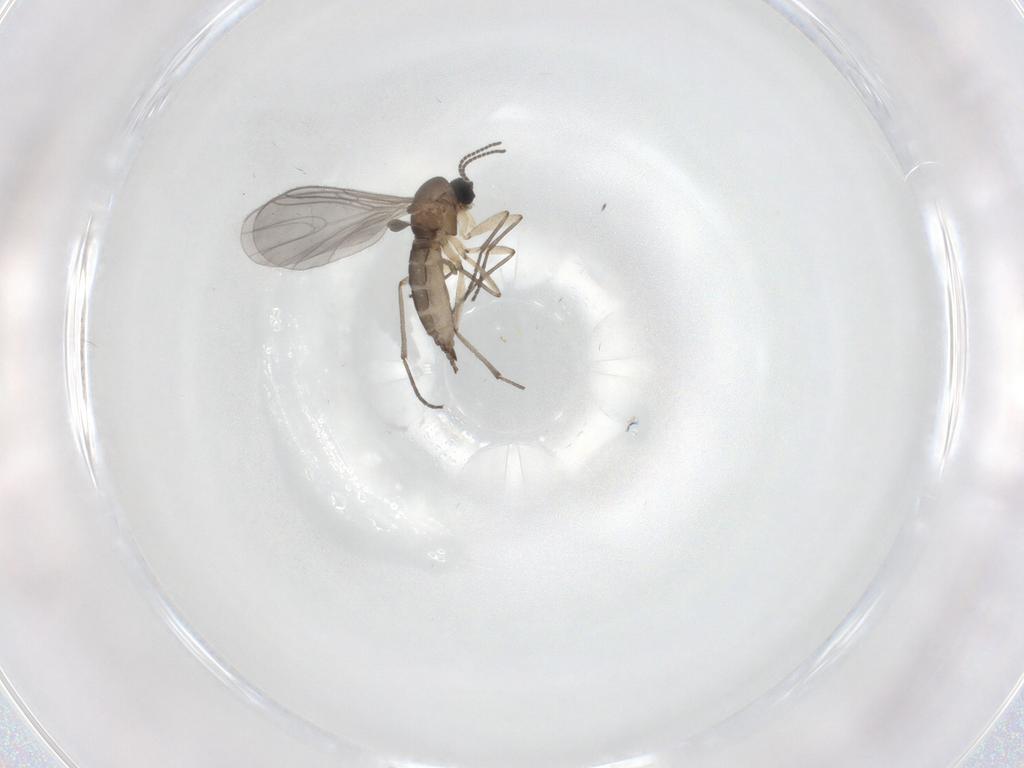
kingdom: Animalia
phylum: Arthropoda
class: Insecta
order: Diptera
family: Sciaridae
